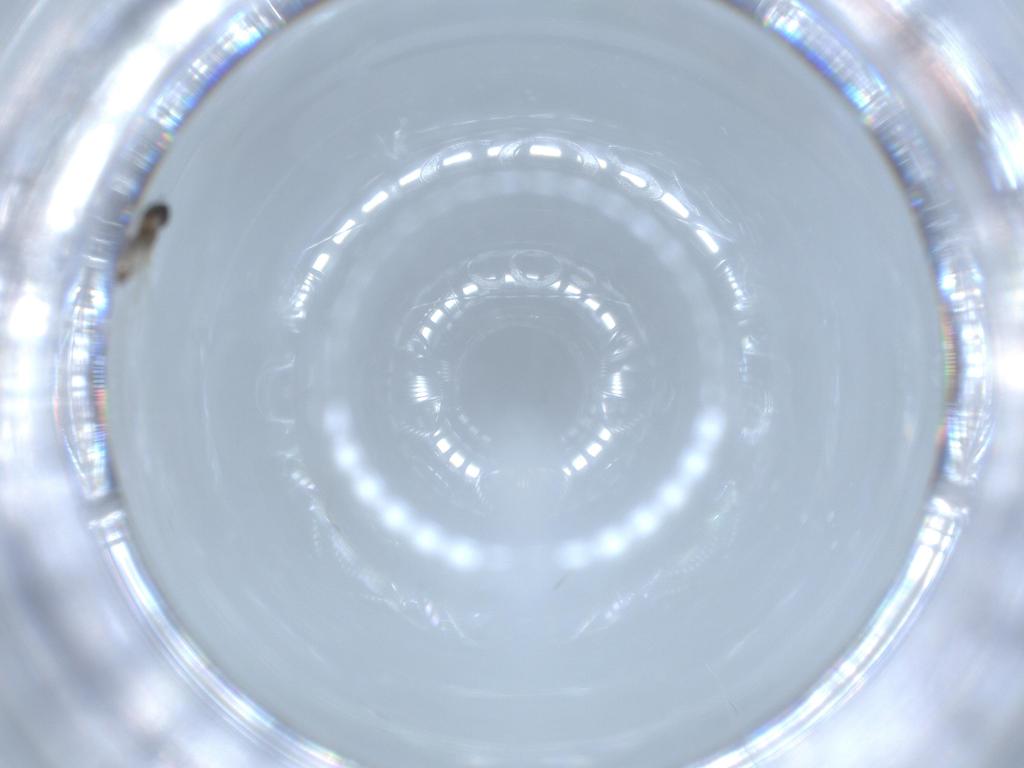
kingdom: Animalia
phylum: Arthropoda
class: Insecta
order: Diptera
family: Cecidomyiidae
